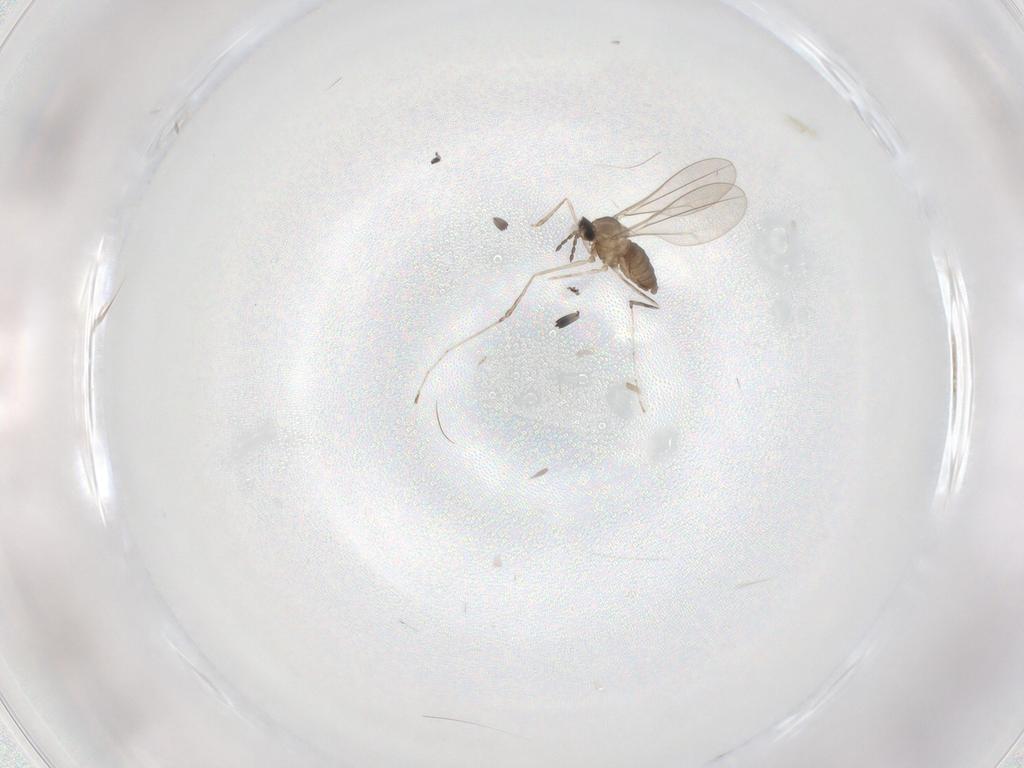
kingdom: Animalia
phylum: Arthropoda
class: Insecta
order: Diptera
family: Cecidomyiidae
